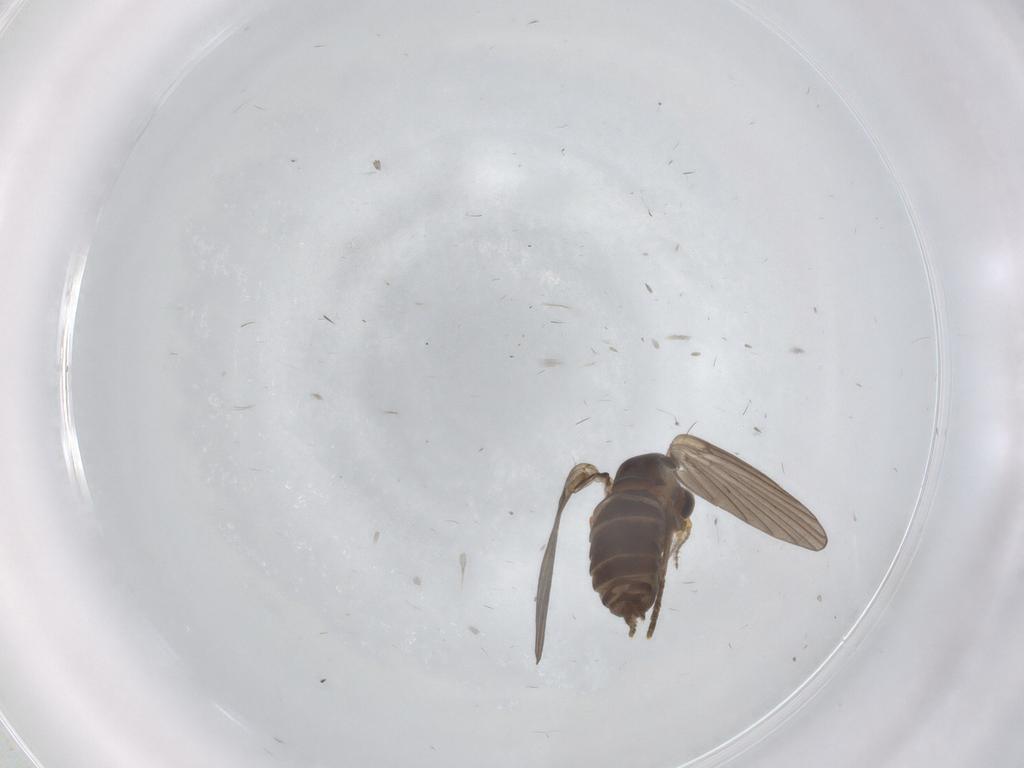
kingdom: Animalia
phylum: Arthropoda
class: Insecta
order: Diptera
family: Psychodidae
